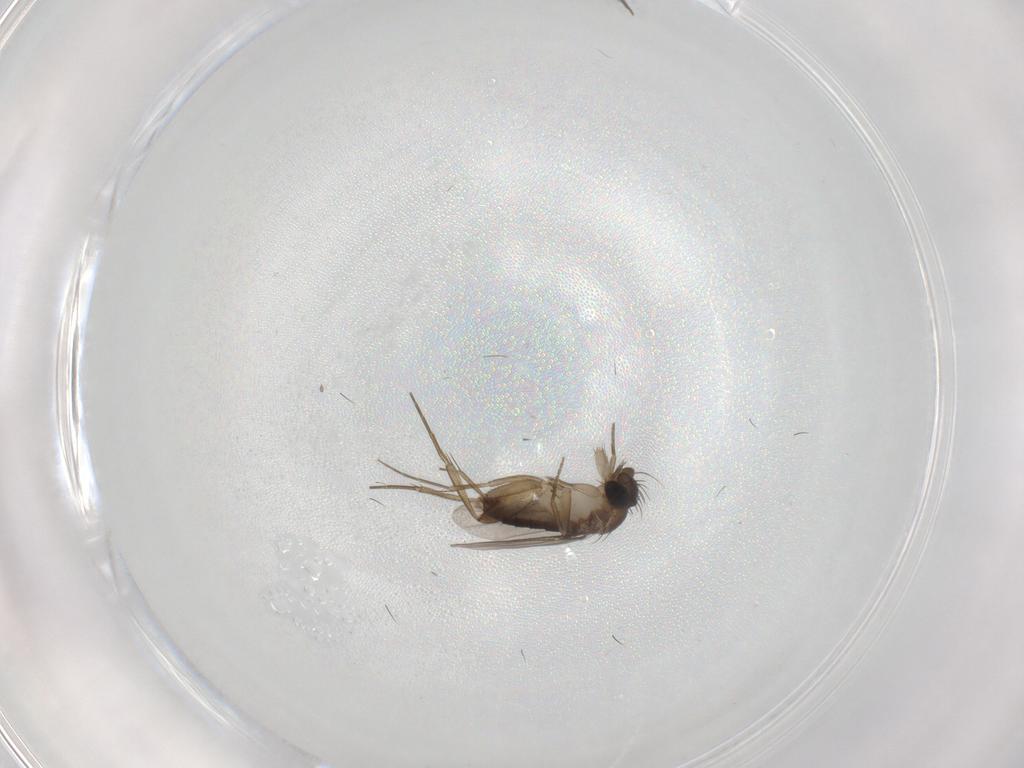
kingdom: Animalia
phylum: Arthropoda
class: Insecta
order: Diptera
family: Phoridae
